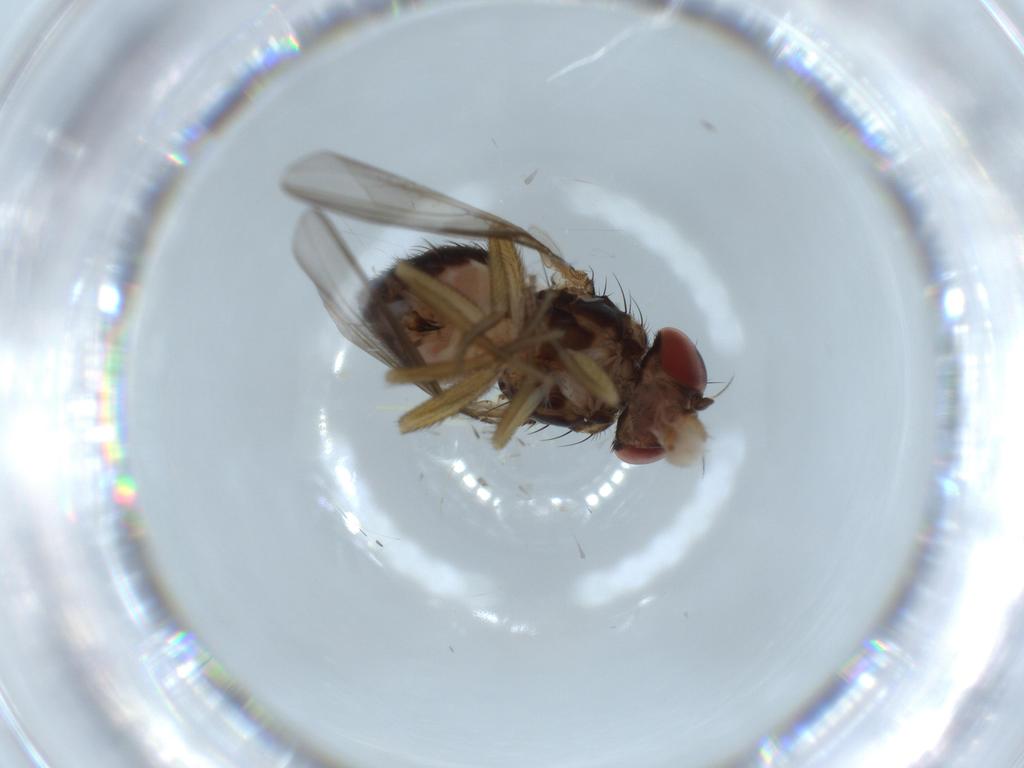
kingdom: Animalia
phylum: Arthropoda
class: Insecta
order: Diptera
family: Drosophilidae
